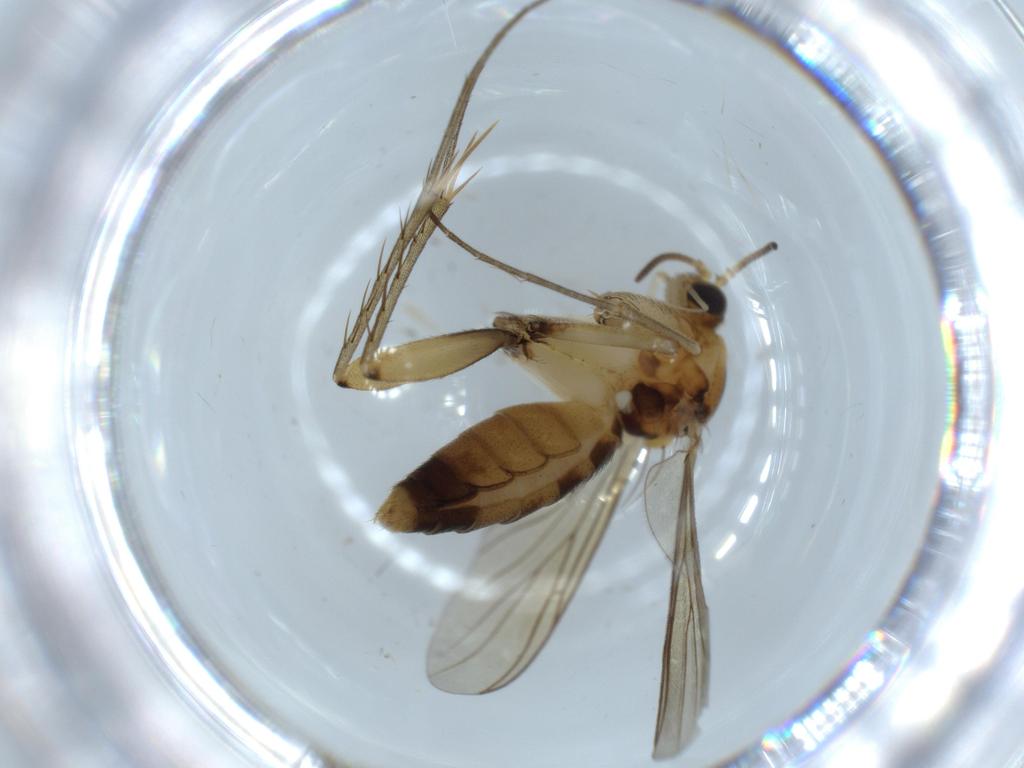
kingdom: Animalia
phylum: Arthropoda
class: Insecta
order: Diptera
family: Mycetophilidae
